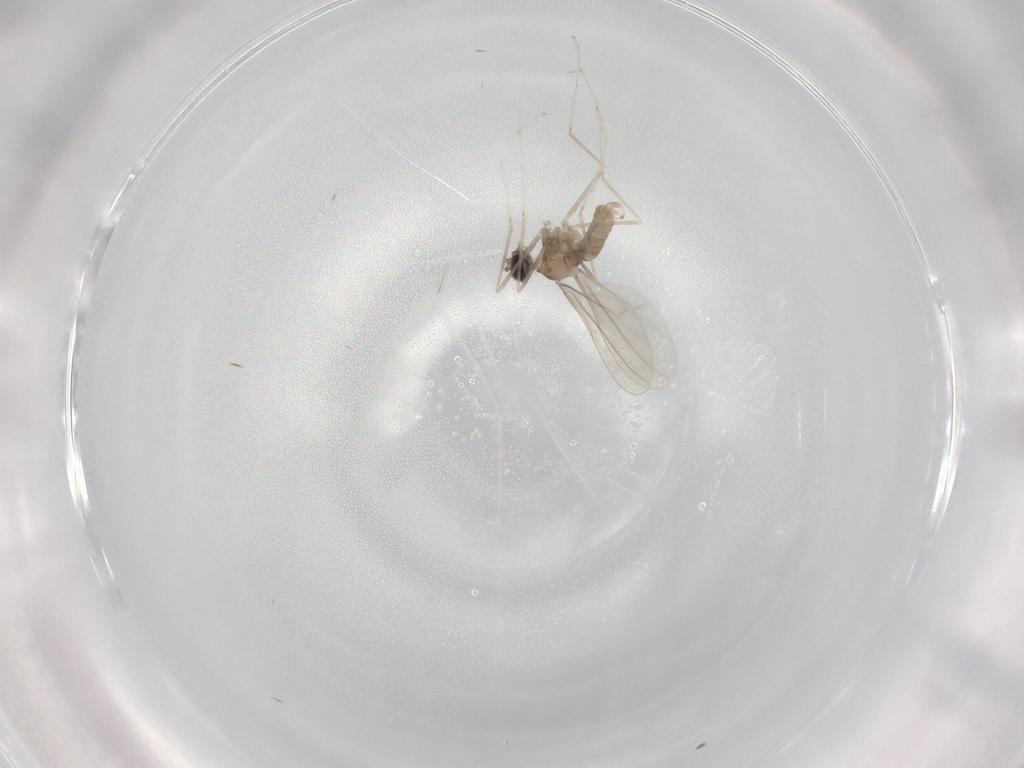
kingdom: Animalia
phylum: Arthropoda
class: Insecta
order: Diptera
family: Cecidomyiidae
